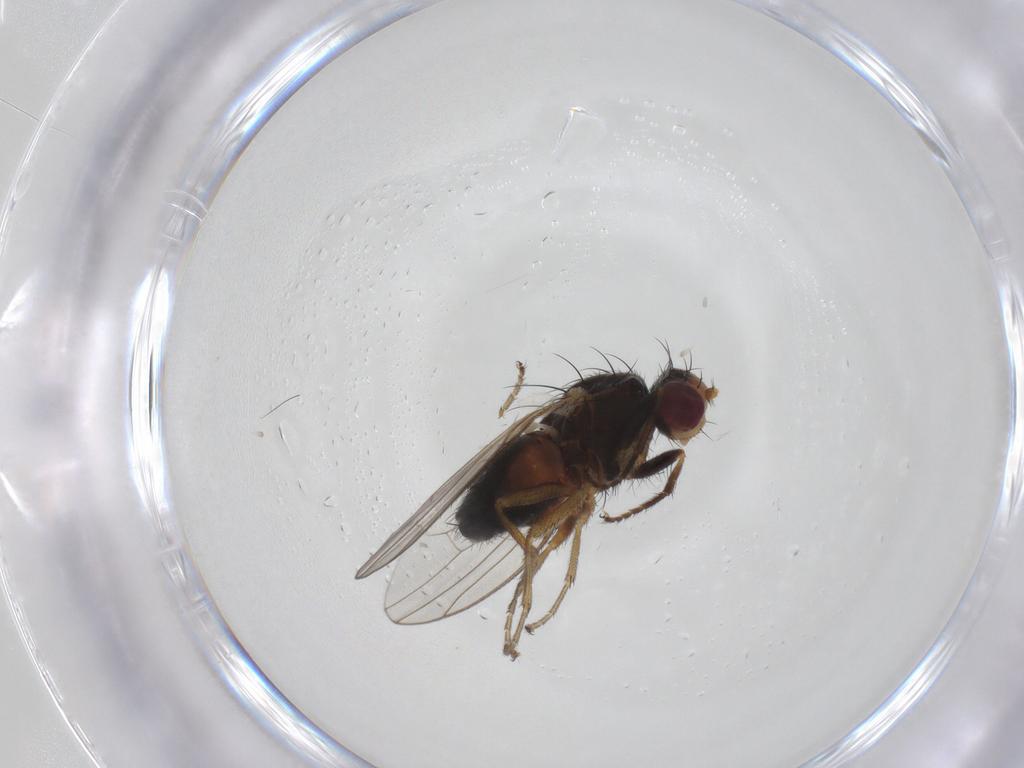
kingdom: Animalia
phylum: Arthropoda
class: Insecta
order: Diptera
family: Heleomyzidae
